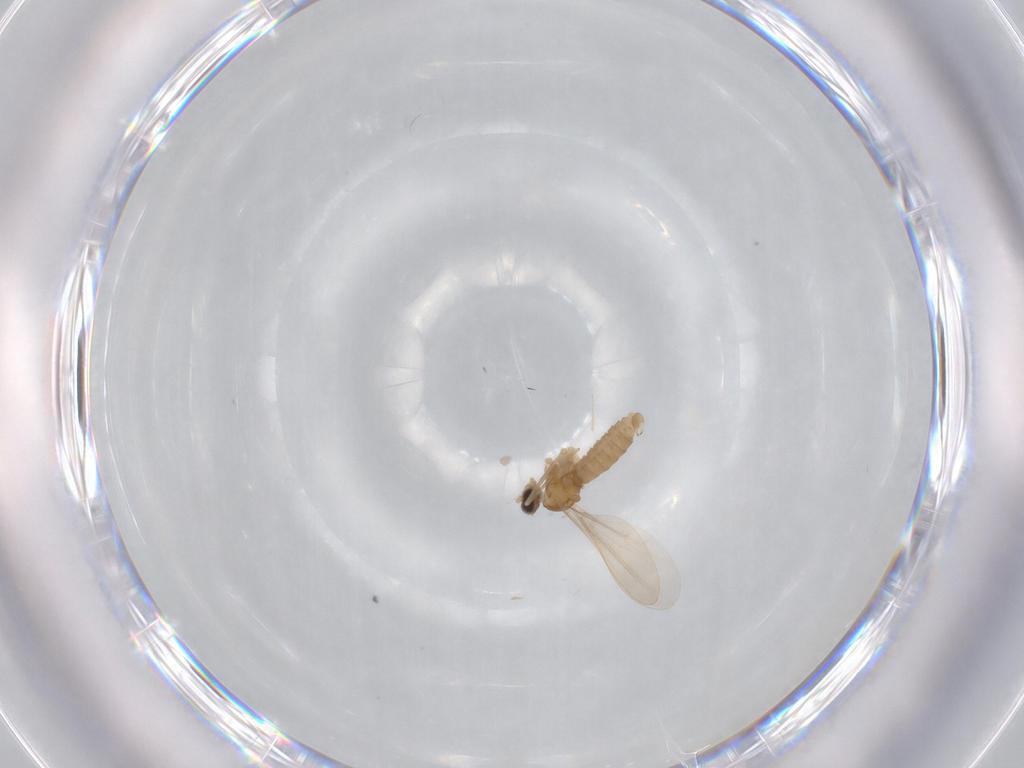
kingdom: Animalia
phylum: Arthropoda
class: Insecta
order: Diptera
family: Cecidomyiidae
